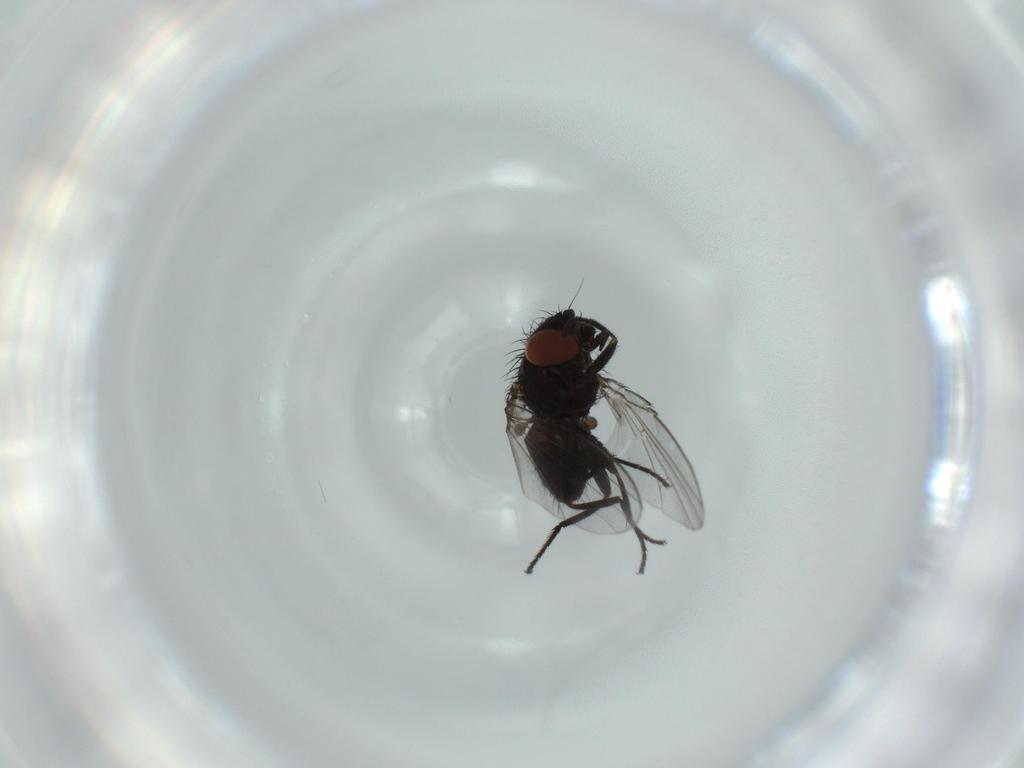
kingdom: Animalia
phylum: Arthropoda
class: Insecta
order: Diptera
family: Milichiidae
